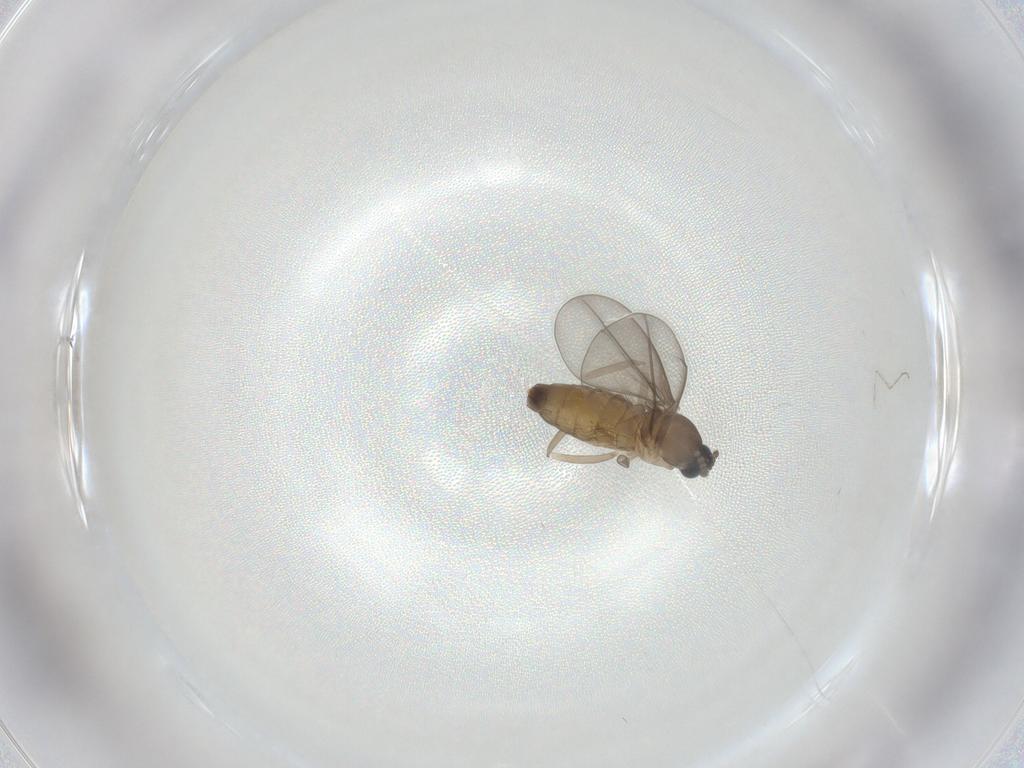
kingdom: Animalia
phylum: Arthropoda
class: Insecta
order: Diptera
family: Cecidomyiidae
